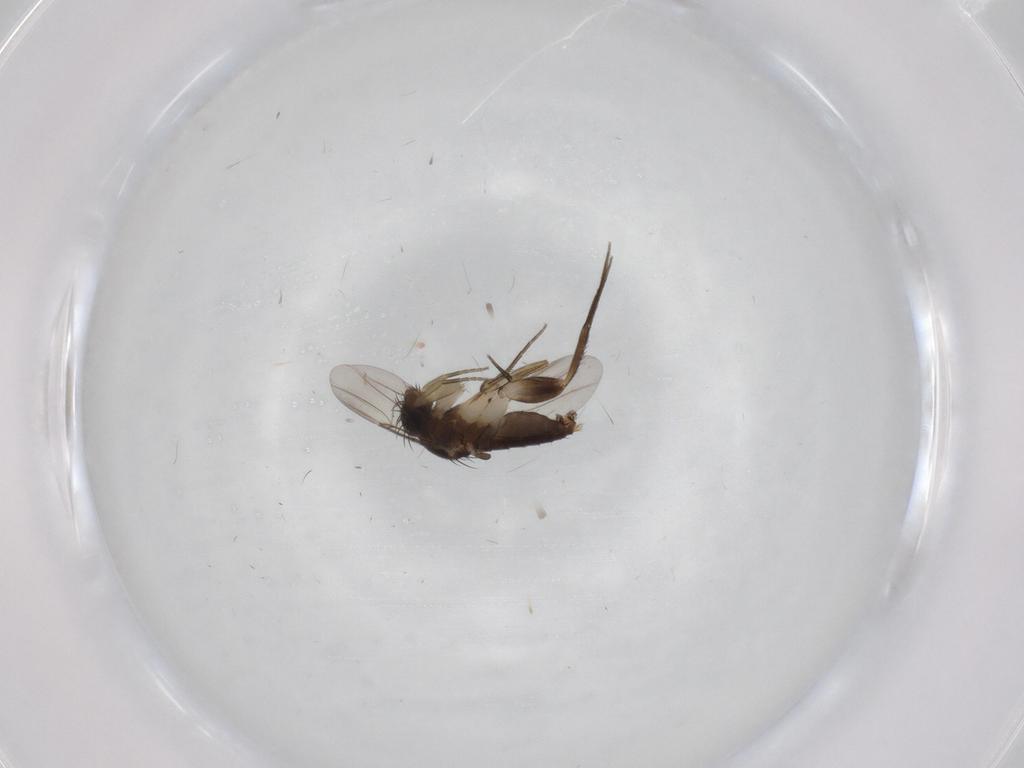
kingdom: Animalia
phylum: Arthropoda
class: Insecta
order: Diptera
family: Phoridae
